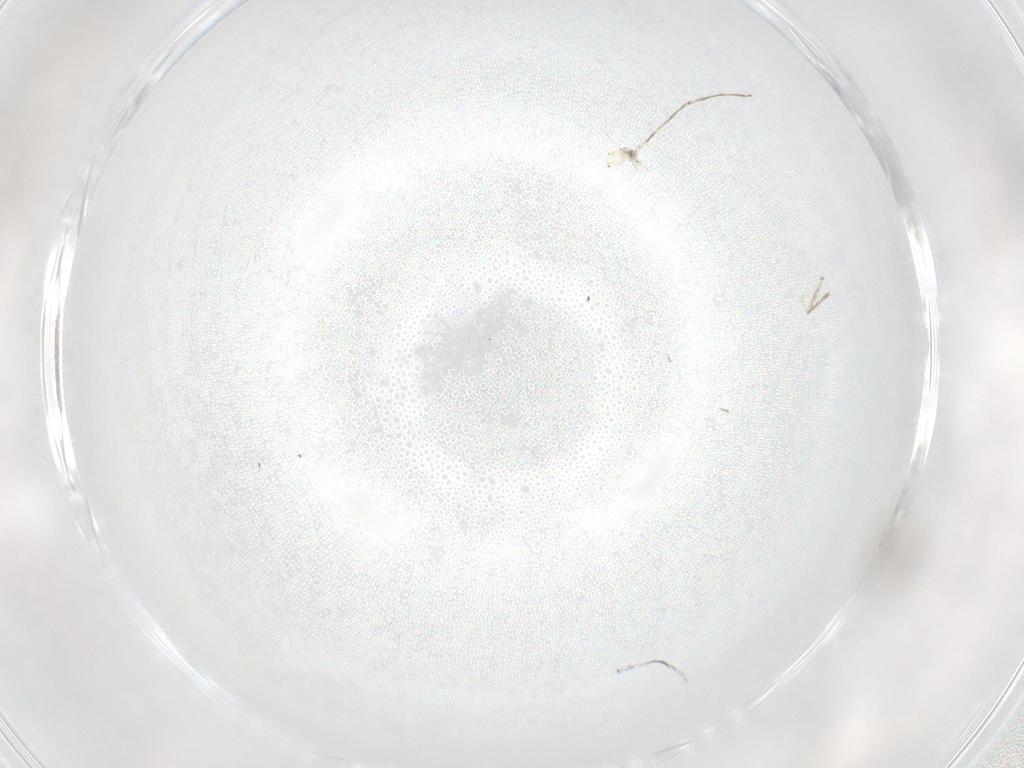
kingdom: Animalia
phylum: Arthropoda
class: Insecta
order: Diptera
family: Cecidomyiidae
